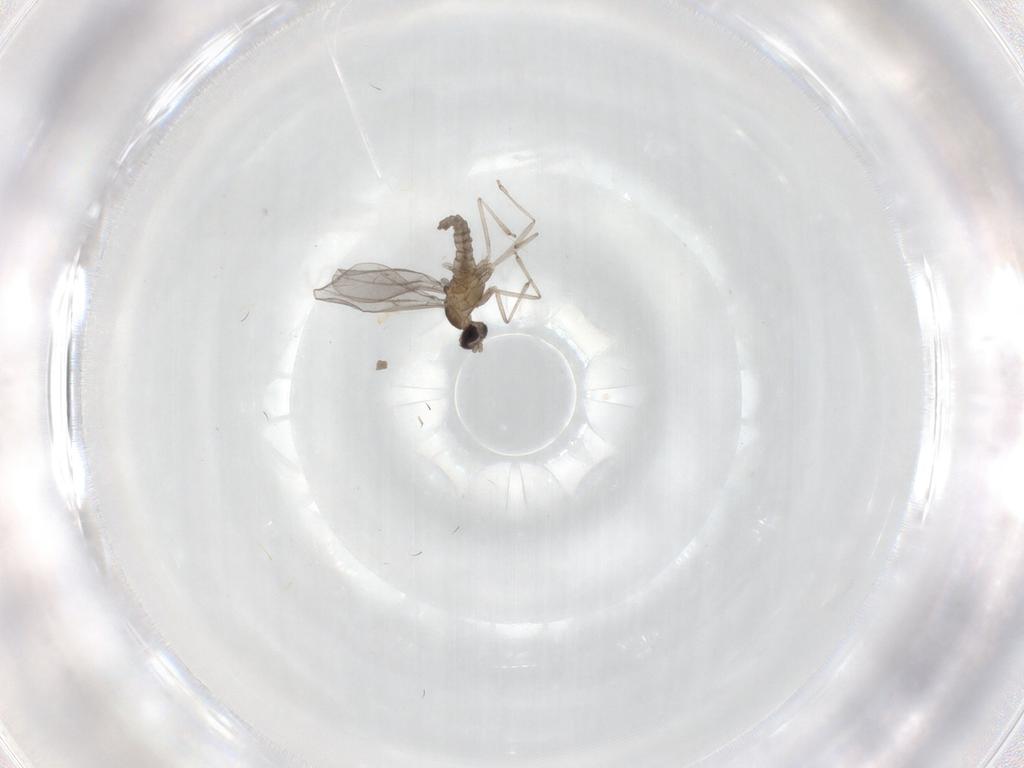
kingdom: Animalia
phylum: Arthropoda
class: Insecta
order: Diptera
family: Cecidomyiidae
